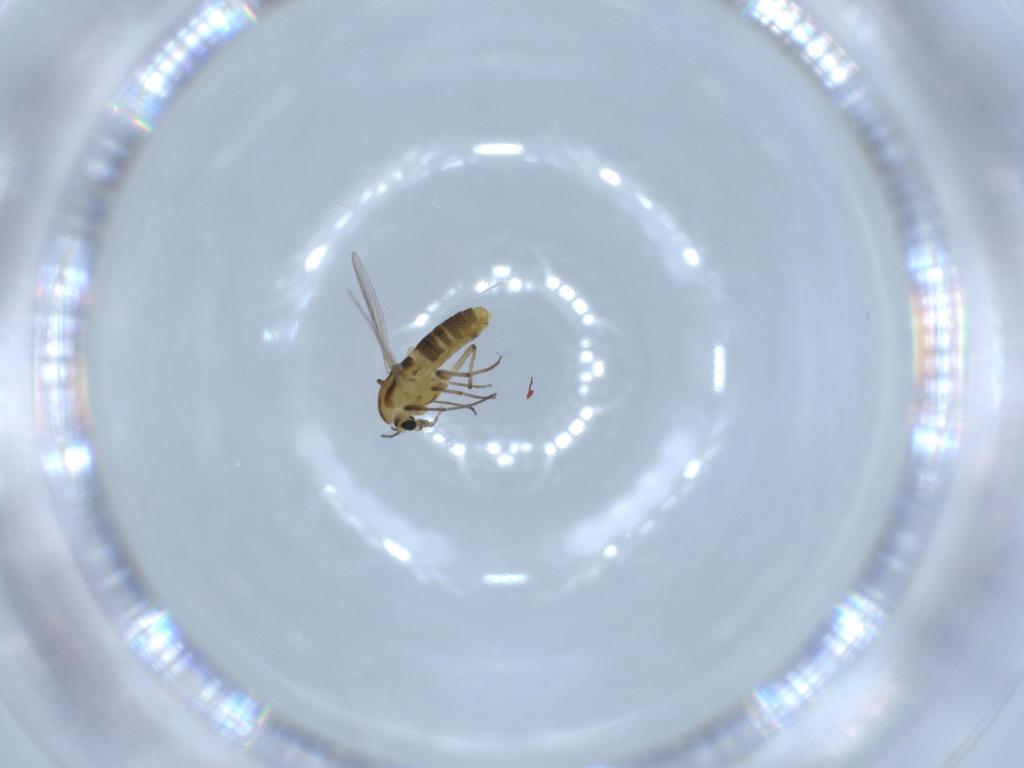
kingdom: Animalia
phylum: Arthropoda
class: Insecta
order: Diptera
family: Chironomidae
